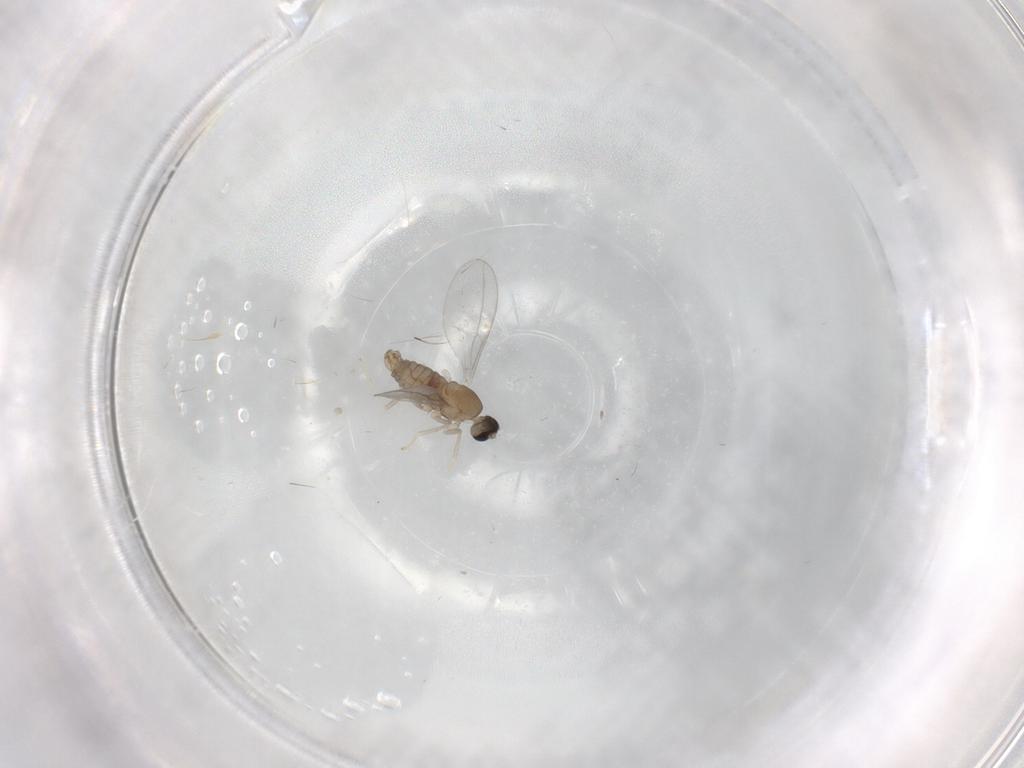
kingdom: Animalia
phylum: Arthropoda
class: Insecta
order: Diptera
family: Cecidomyiidae
